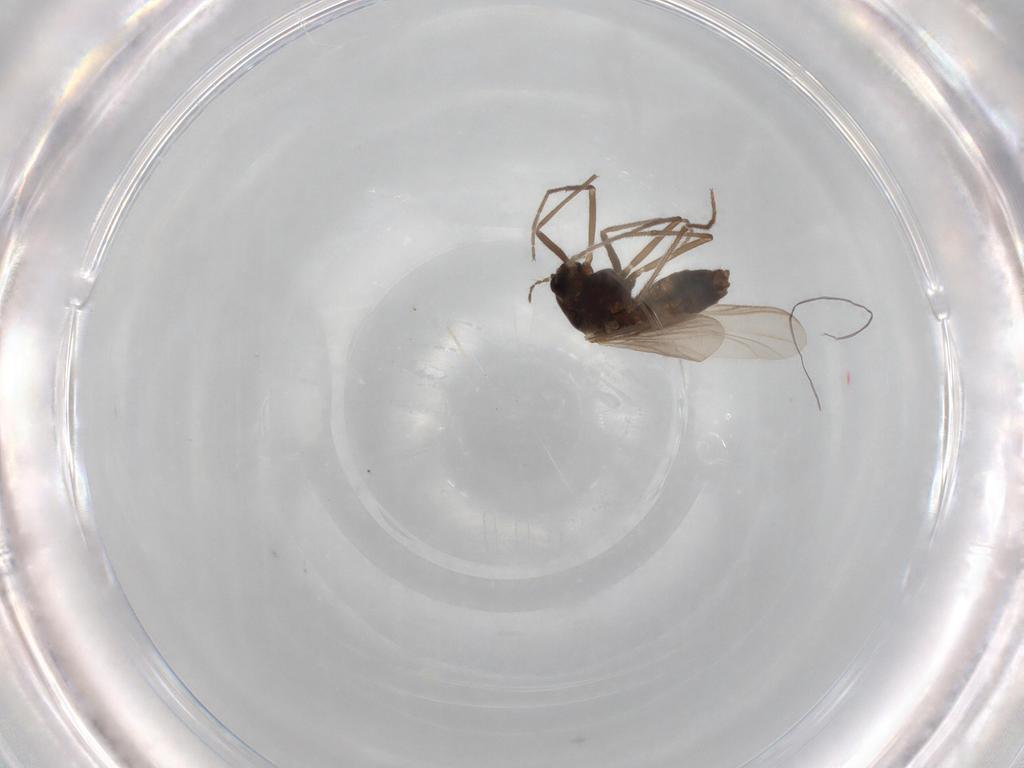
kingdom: Animalia
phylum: Arthropoda
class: Insecta
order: Diptera
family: Chironomidae
